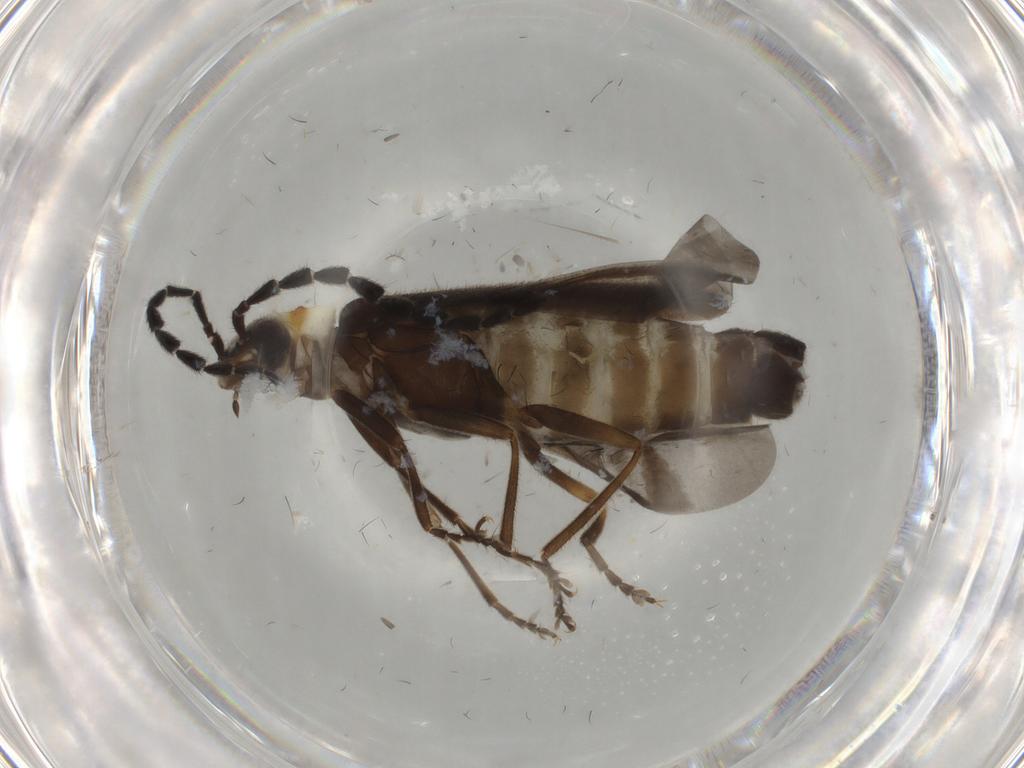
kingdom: Animalia
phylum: Arthropoda
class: Insecta
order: Coleoptera
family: Cantharidae
